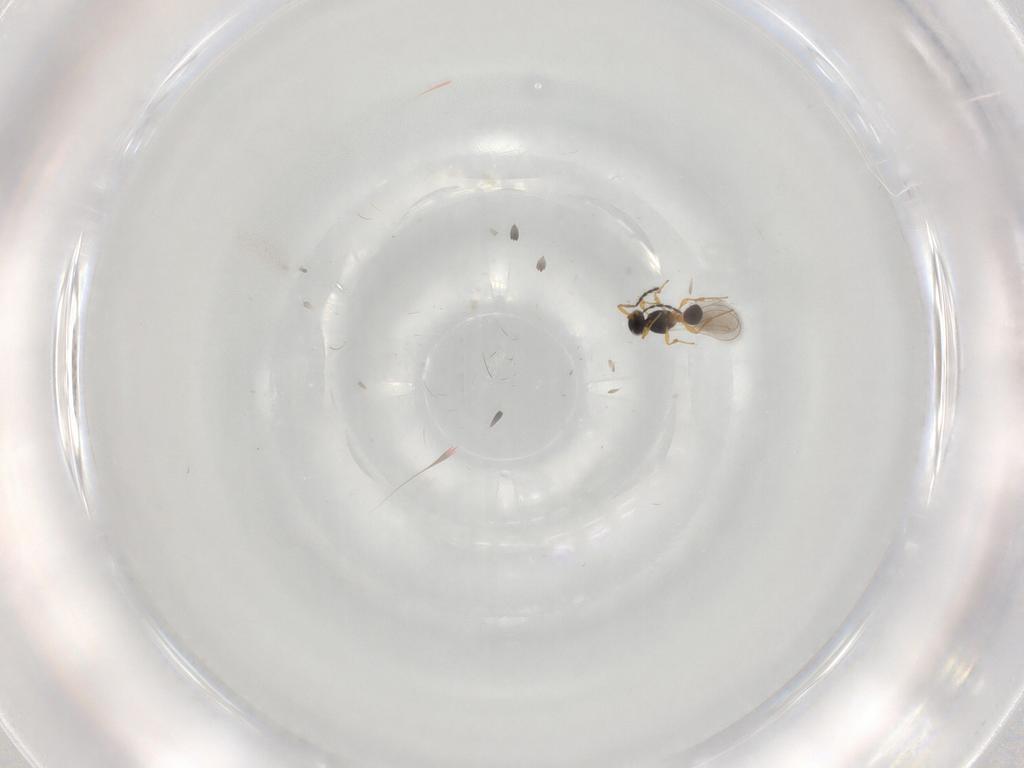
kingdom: Animalia
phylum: Arthropoda
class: Insecta
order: Hymenoptera
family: Platygastridae
